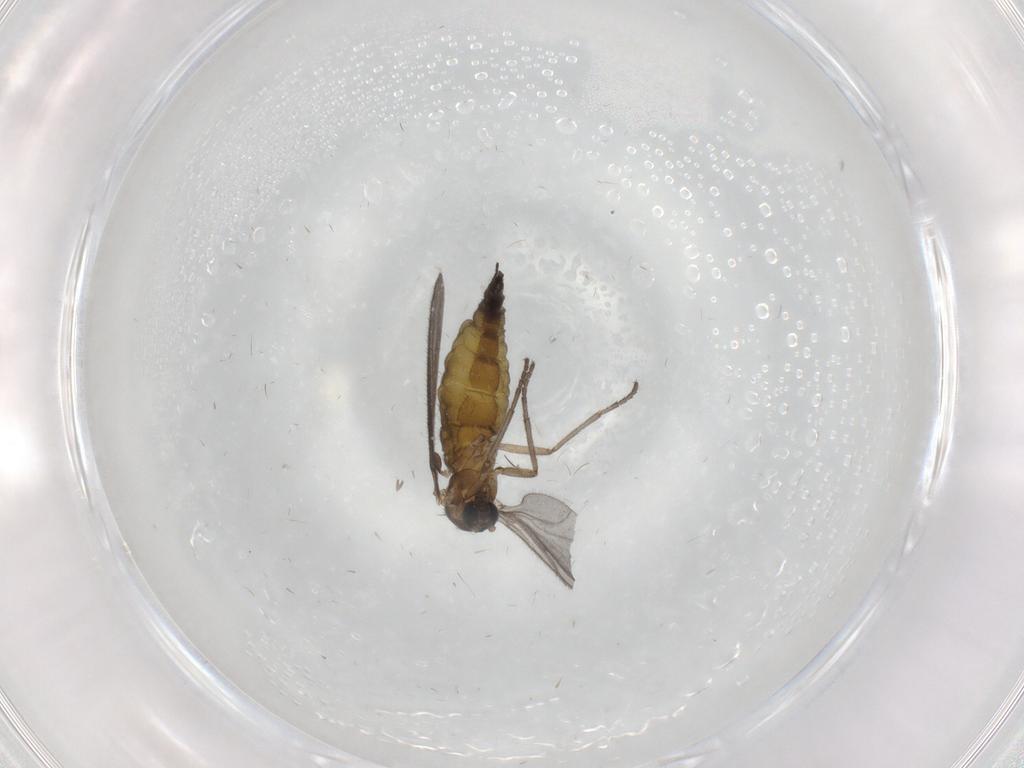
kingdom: Animalia
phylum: Arthropoda
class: Insecta
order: Diptera
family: Sciaridae
